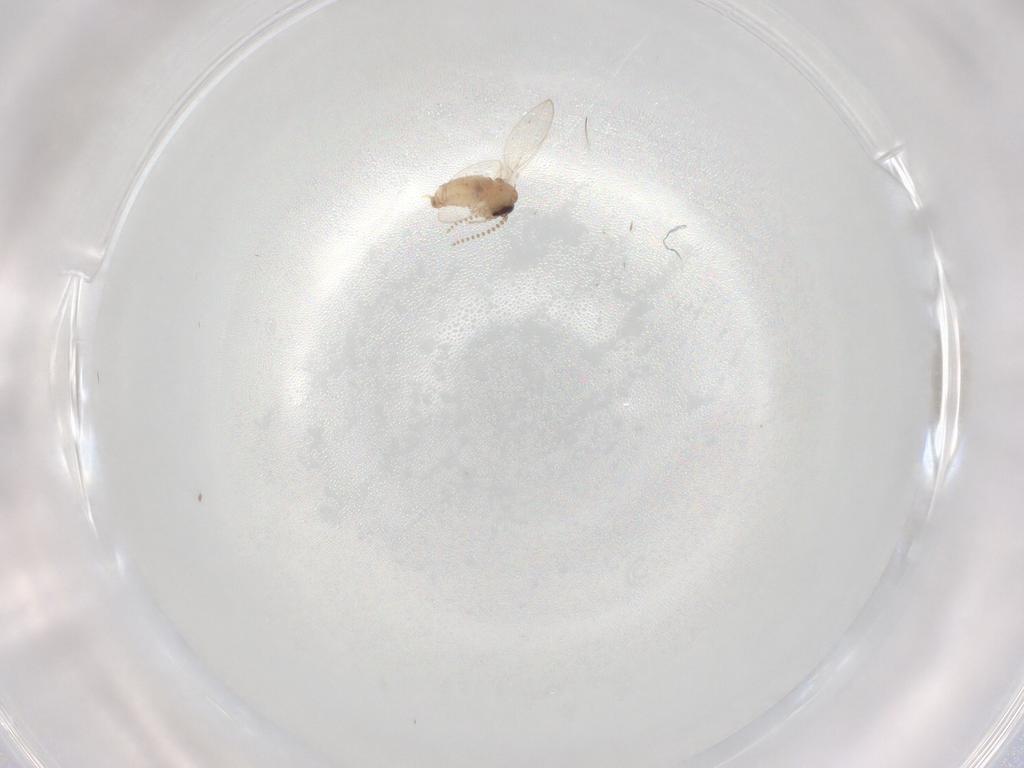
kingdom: Animalia
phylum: Arthropoda
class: Insecta
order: Diptera
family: Ceratopogonidae
